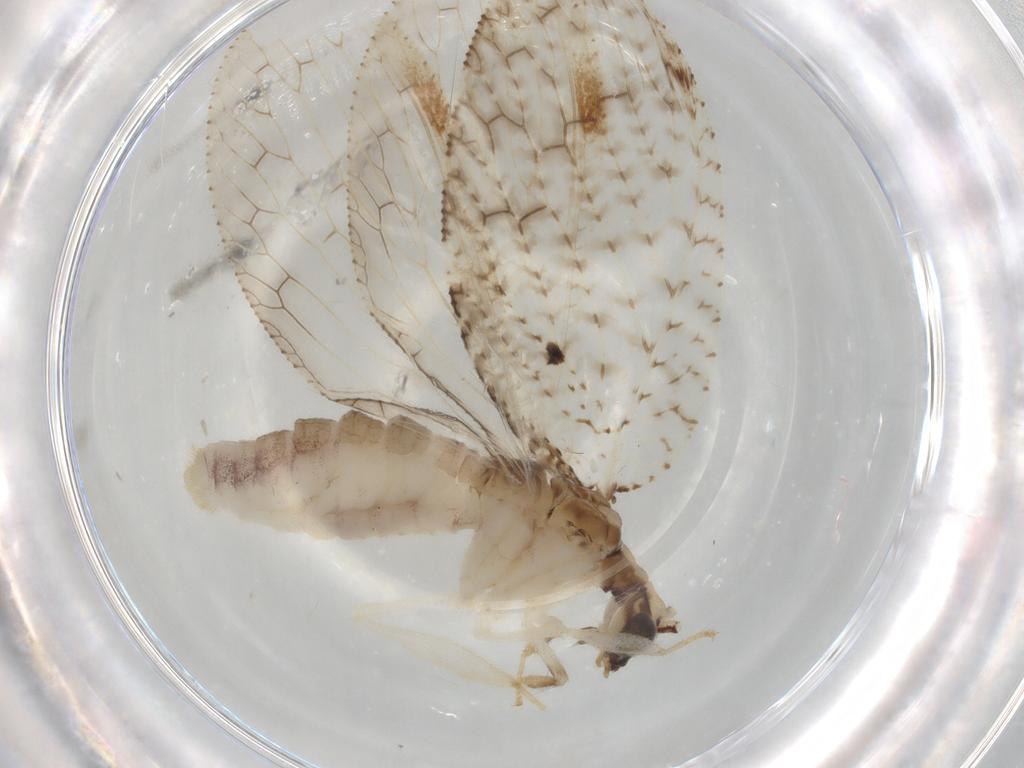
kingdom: Animalia
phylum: Arthropoda
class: Insecta
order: Neuroptera
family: Hemerobiidae
